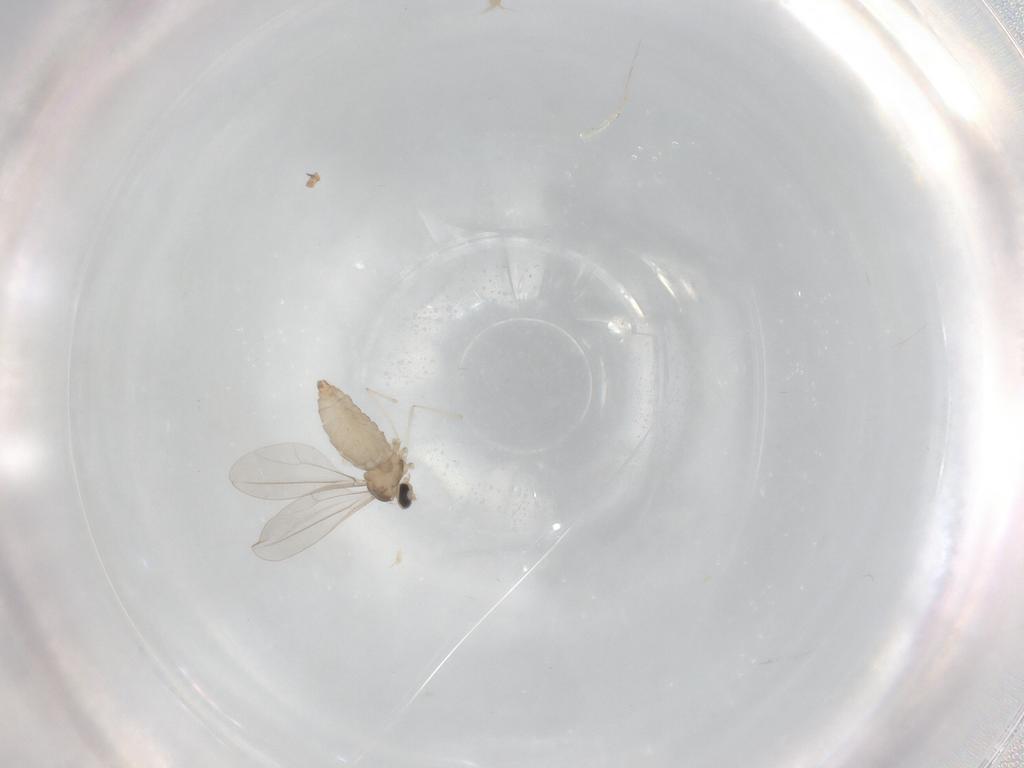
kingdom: Animalia
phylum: Arthropoda
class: Insecta
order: Diptera
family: Cecidomyiidae
